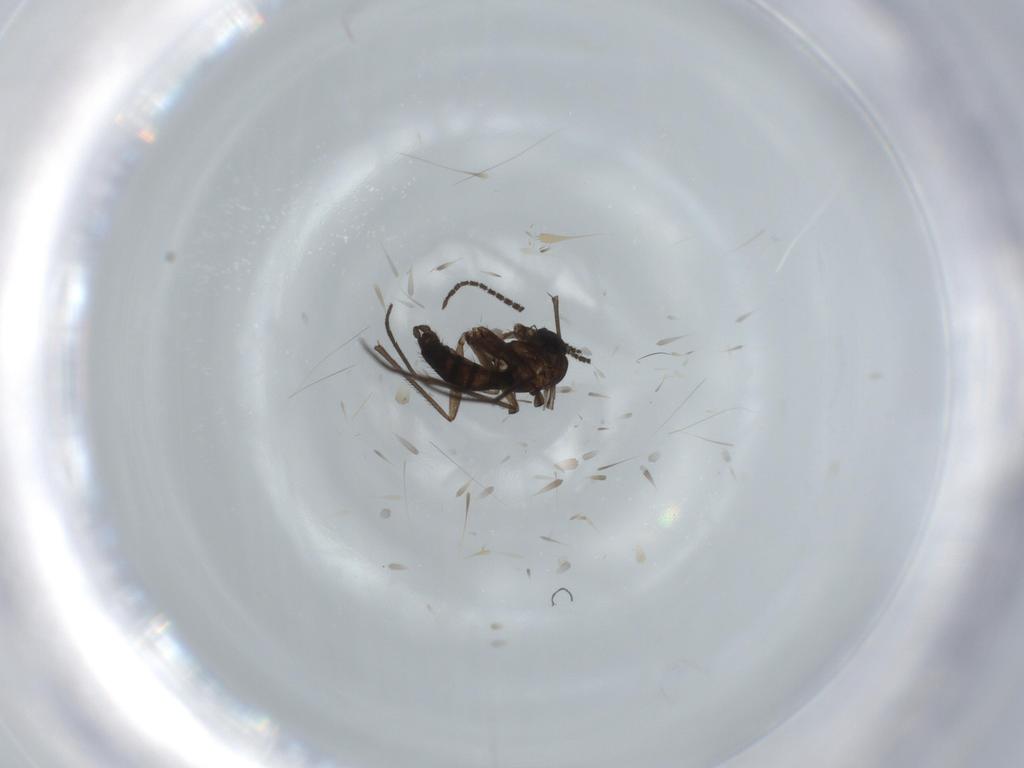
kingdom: Animalia
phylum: Arthropoda
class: Insecta
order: Diptera
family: Sciaridae
